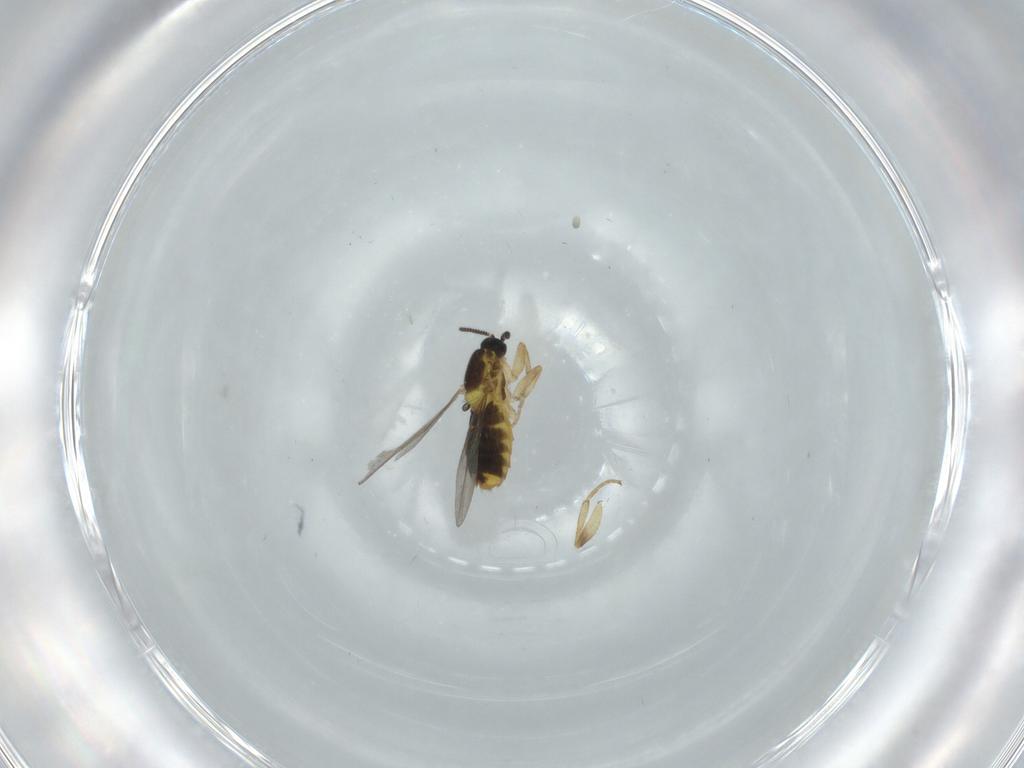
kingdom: Animalia
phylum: Arthropoda
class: Insecta
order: Diptera
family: Scatopsidae
